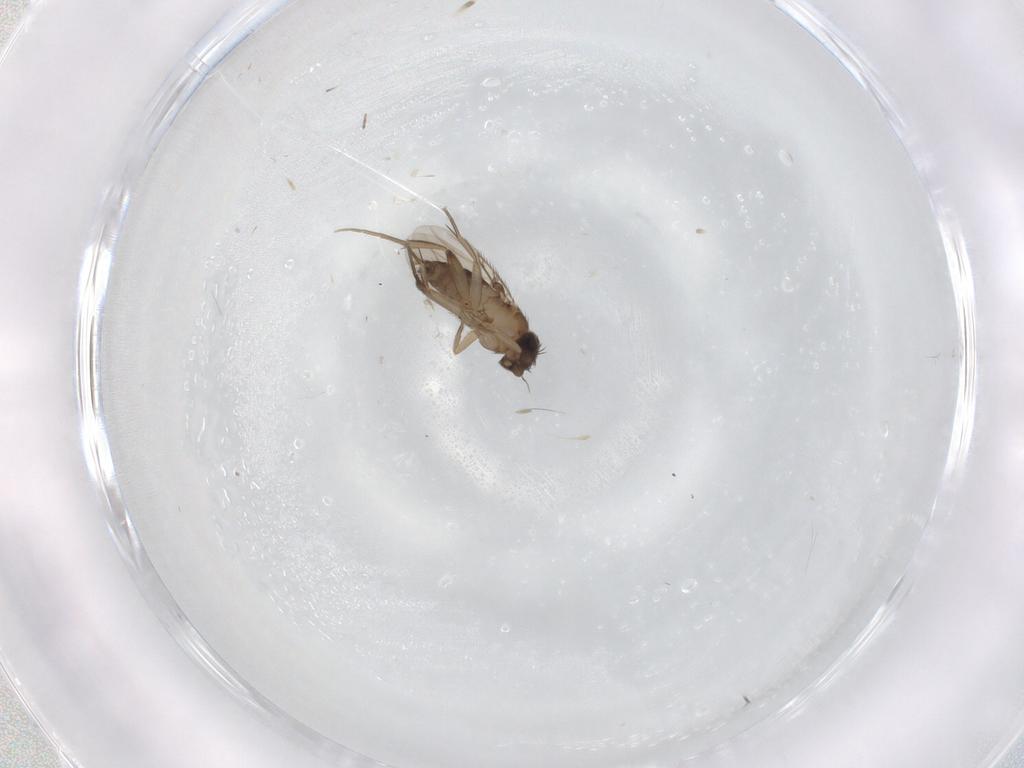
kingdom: Animalia
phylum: Arthropoda
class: Insecta
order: Diptera
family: Phoridae
